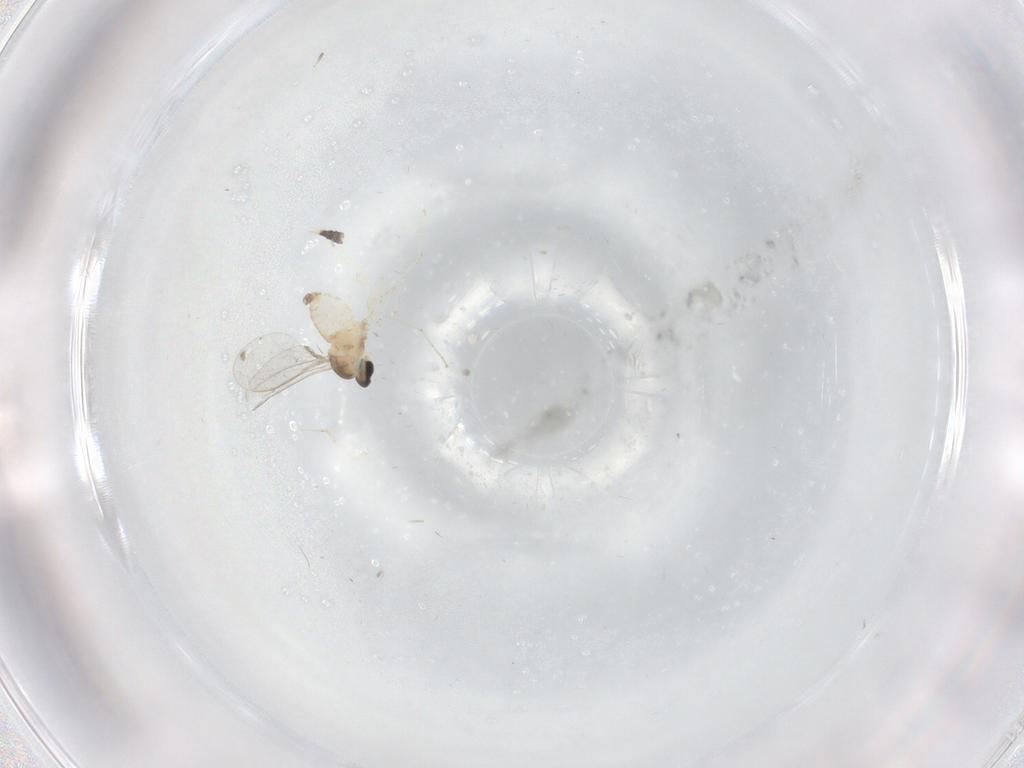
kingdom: Animalia
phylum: Arthropoda
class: Insecta
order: Diptera
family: Cecidomyiidae
